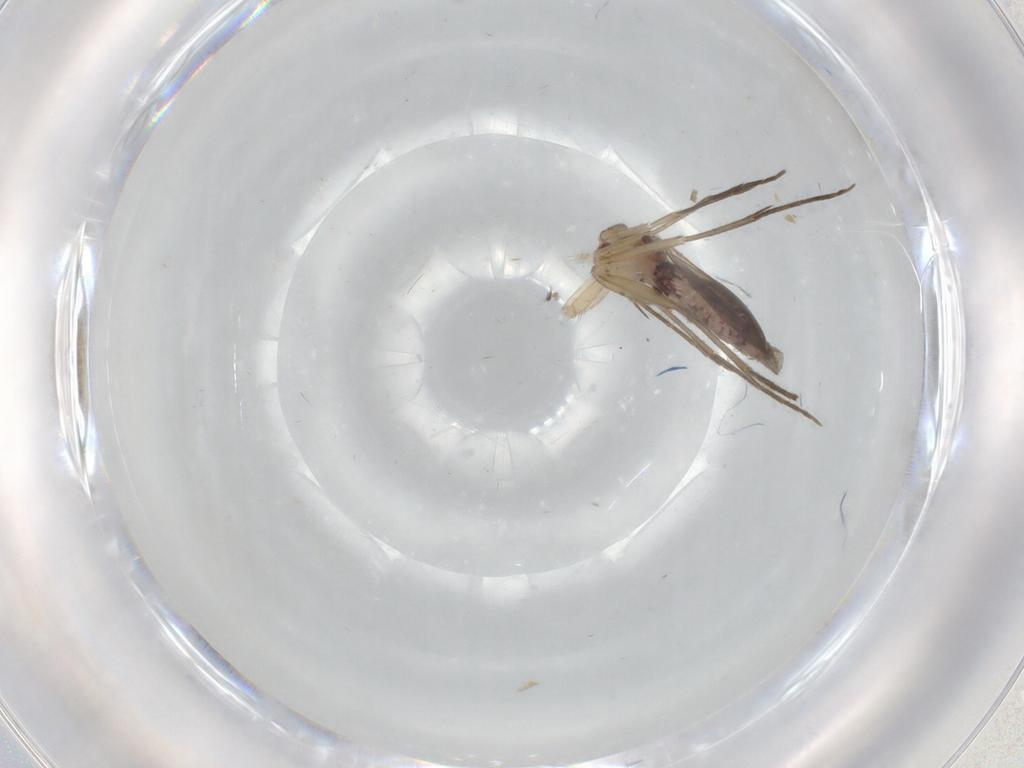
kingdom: Animalia
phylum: Arthropoda
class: Insecta
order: Diptera
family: Mycetophilidae
